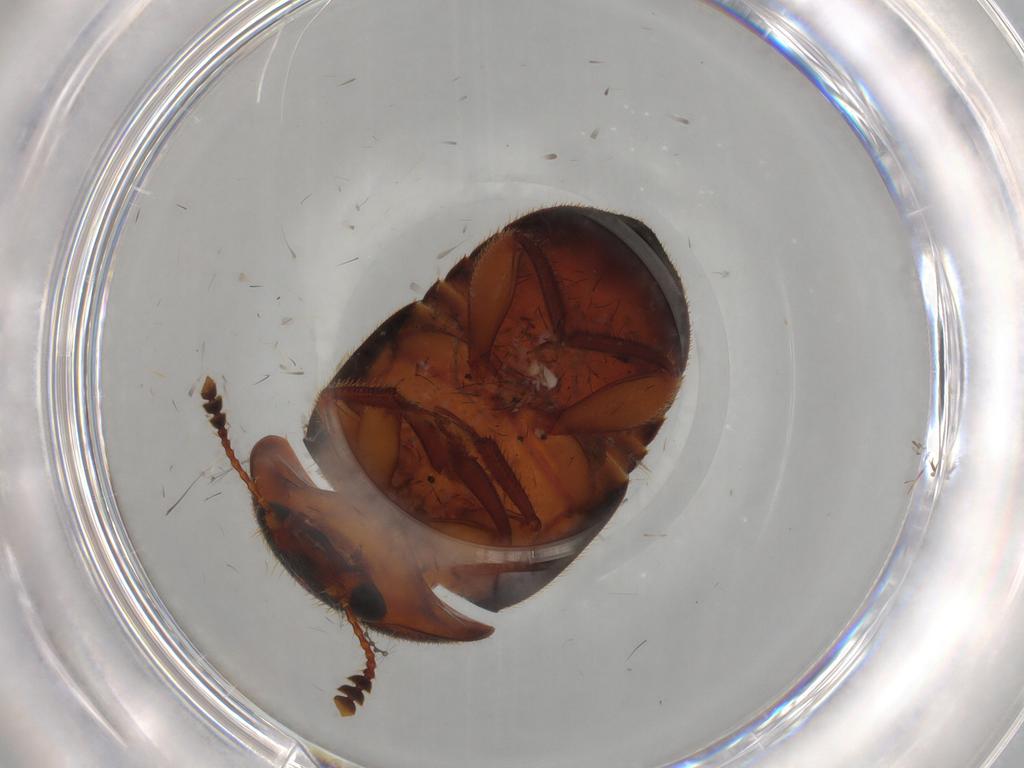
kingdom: Animalia
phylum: Arthropoda
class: Insecta
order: Coleoptera
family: Nitidulidae
